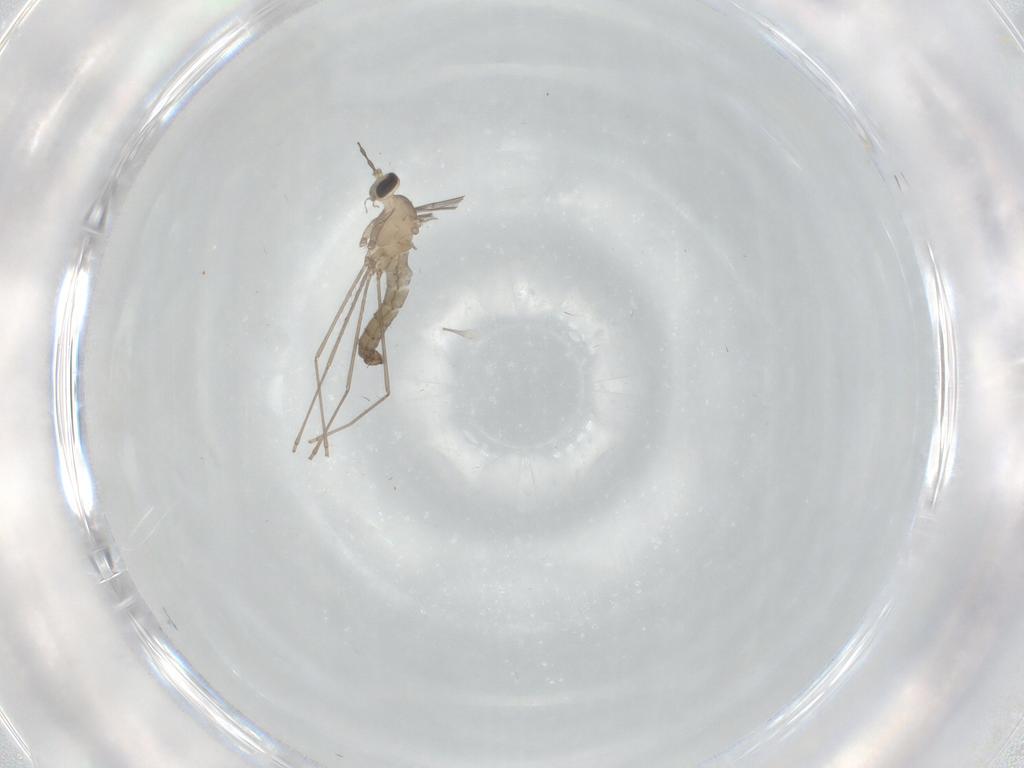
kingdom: Animalia
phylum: Arthropoda
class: Insecta
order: Diptera
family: Cecidomyiidae
